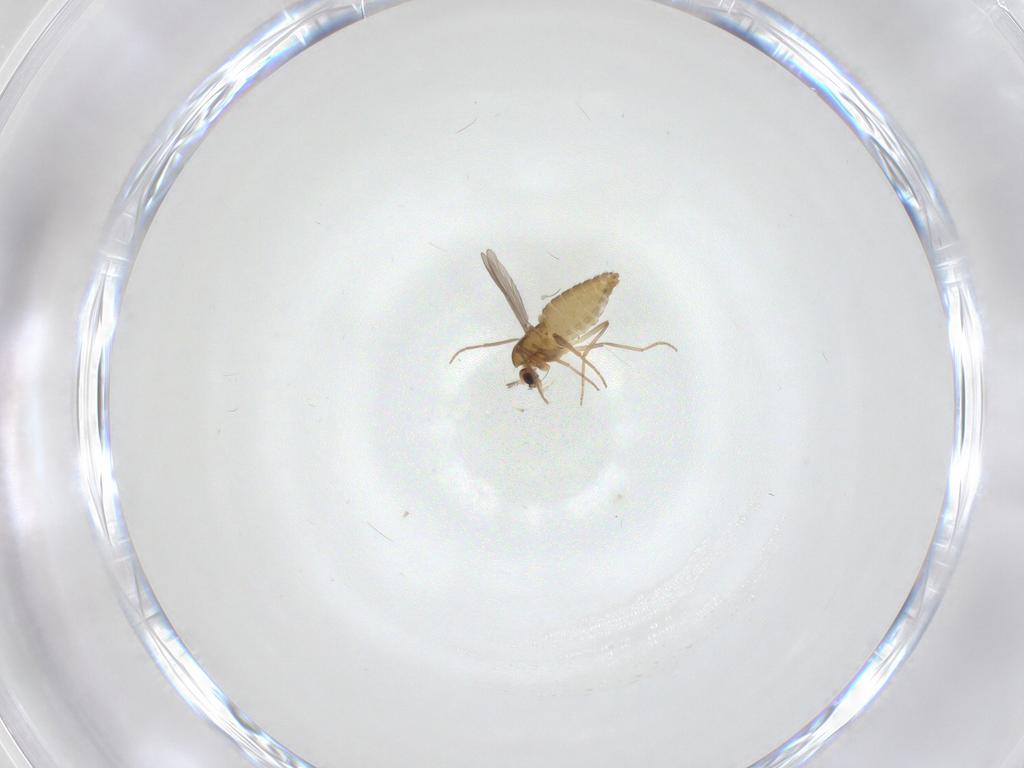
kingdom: Animalia
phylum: Arthropoda
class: Insecta
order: Diptera
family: Chironomidae
